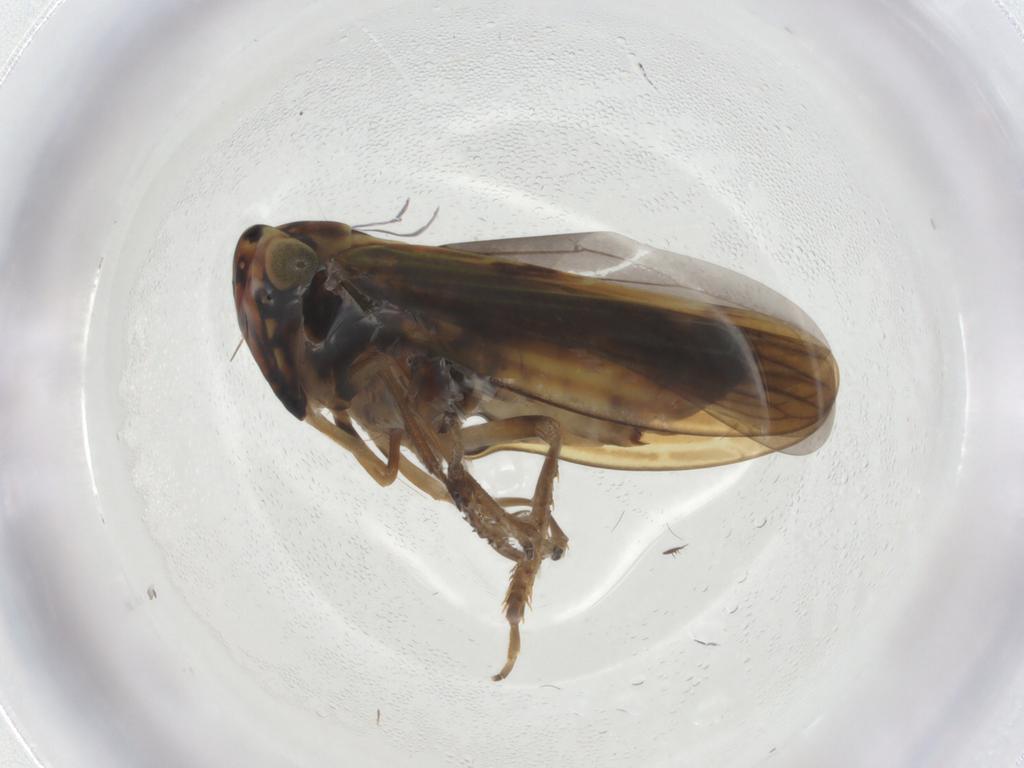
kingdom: Animalia
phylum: Arthropoda
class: Insecta
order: Hemiptera
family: Cicadellidae
